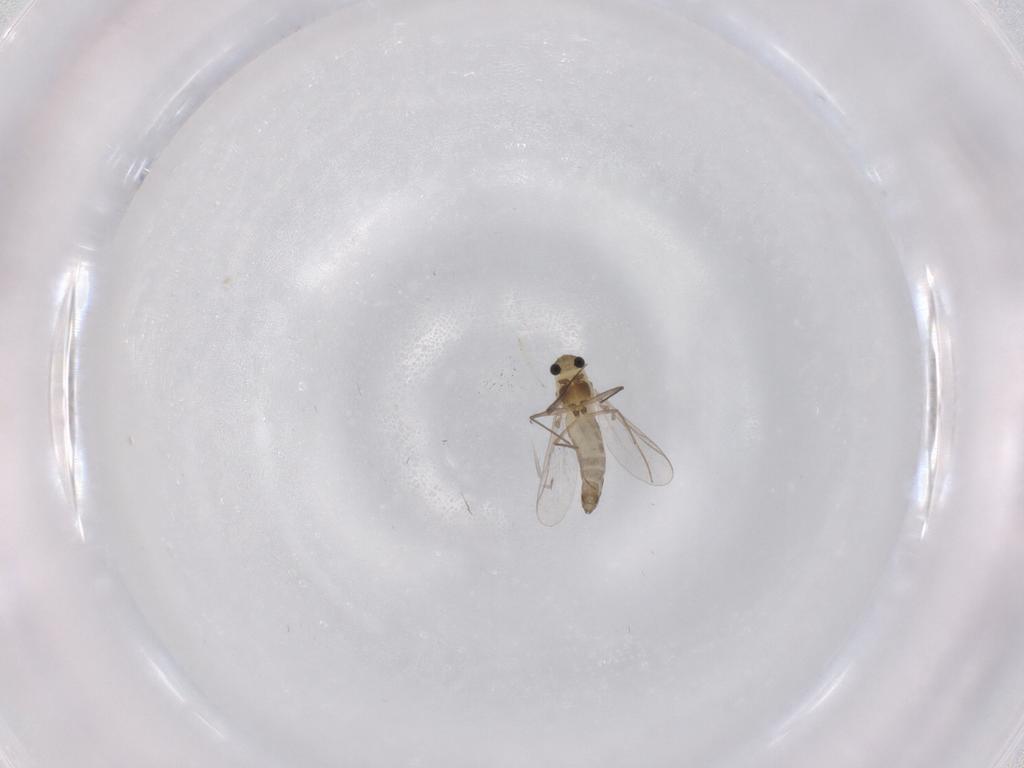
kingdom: Animalia
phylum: Arthropoda
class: Insecta
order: Diptera
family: Chironomidae
